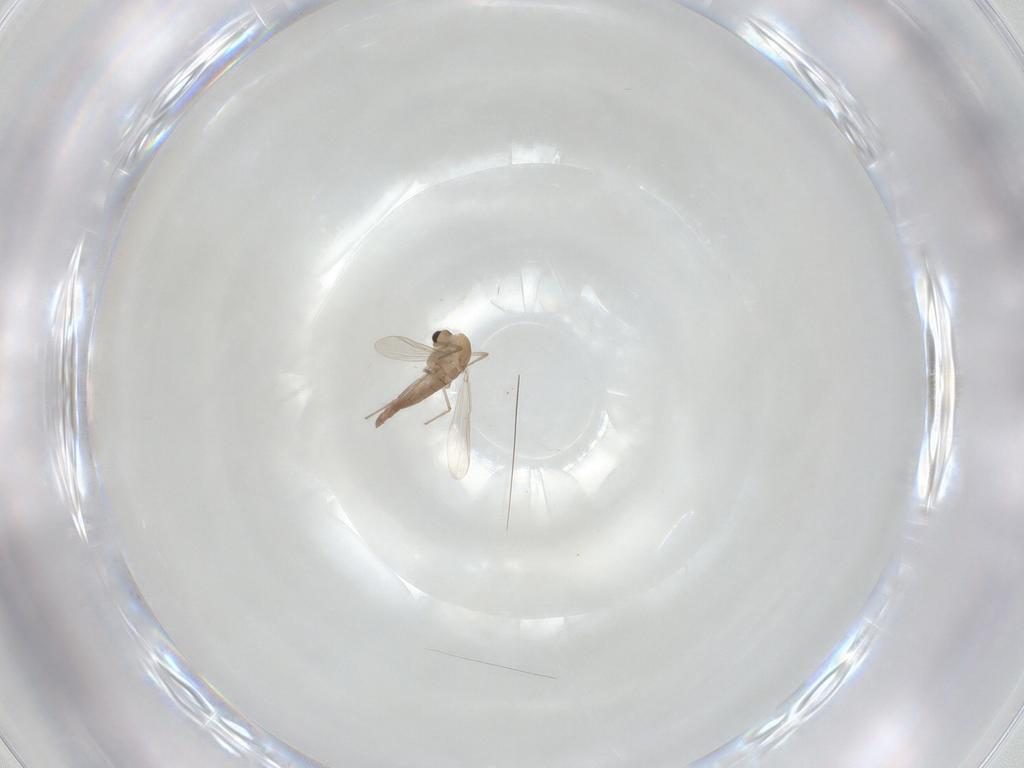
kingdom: Animalia
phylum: Arthropoda
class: Insecta
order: Diptera
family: Chironomidae
